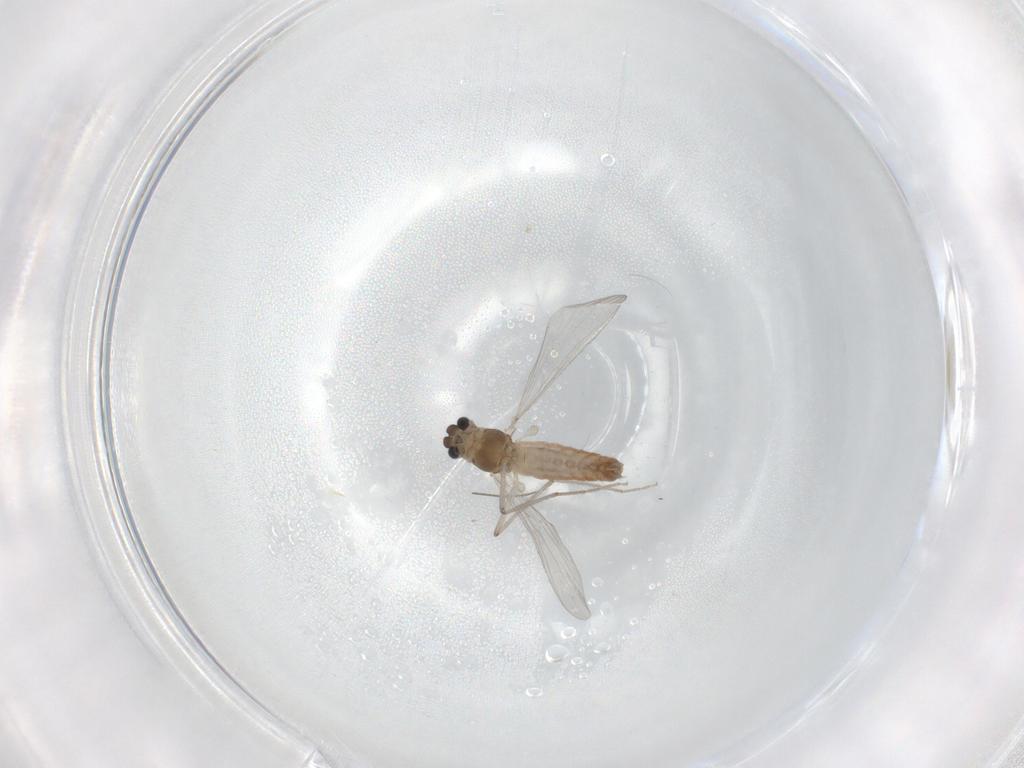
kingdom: Animalia
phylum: Arthropoda
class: Insecta
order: Diptera
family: Chironomidae
